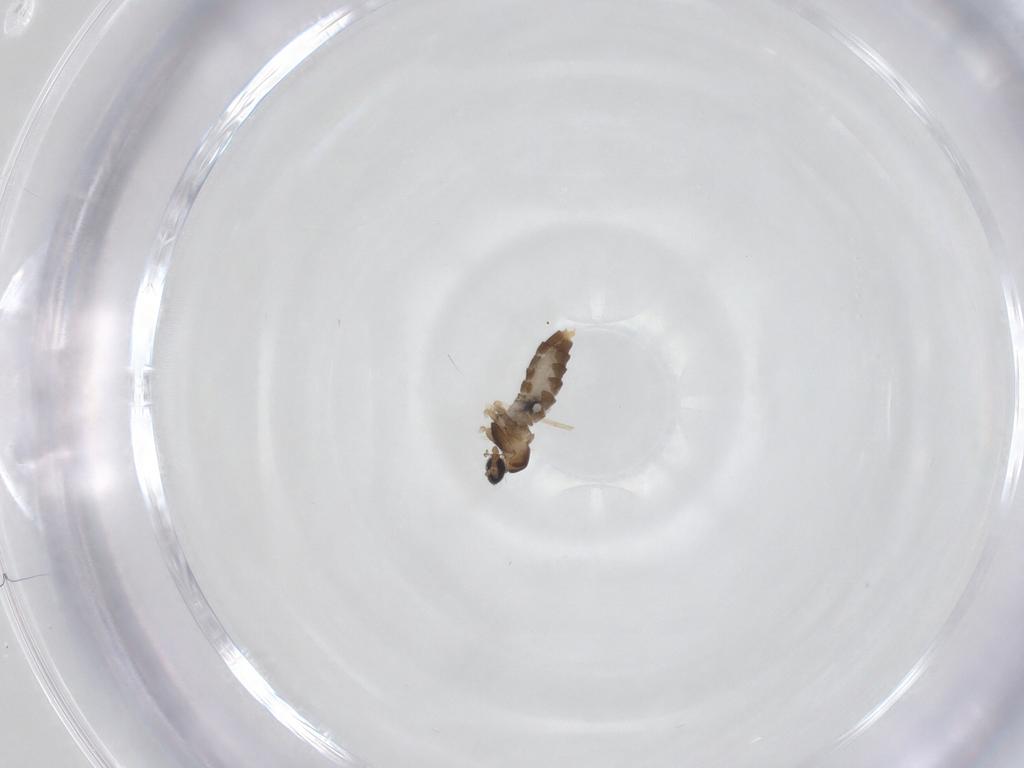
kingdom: Animalia
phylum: Arthropoda
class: Insecta
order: Diptera
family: Cecidomyiidae
